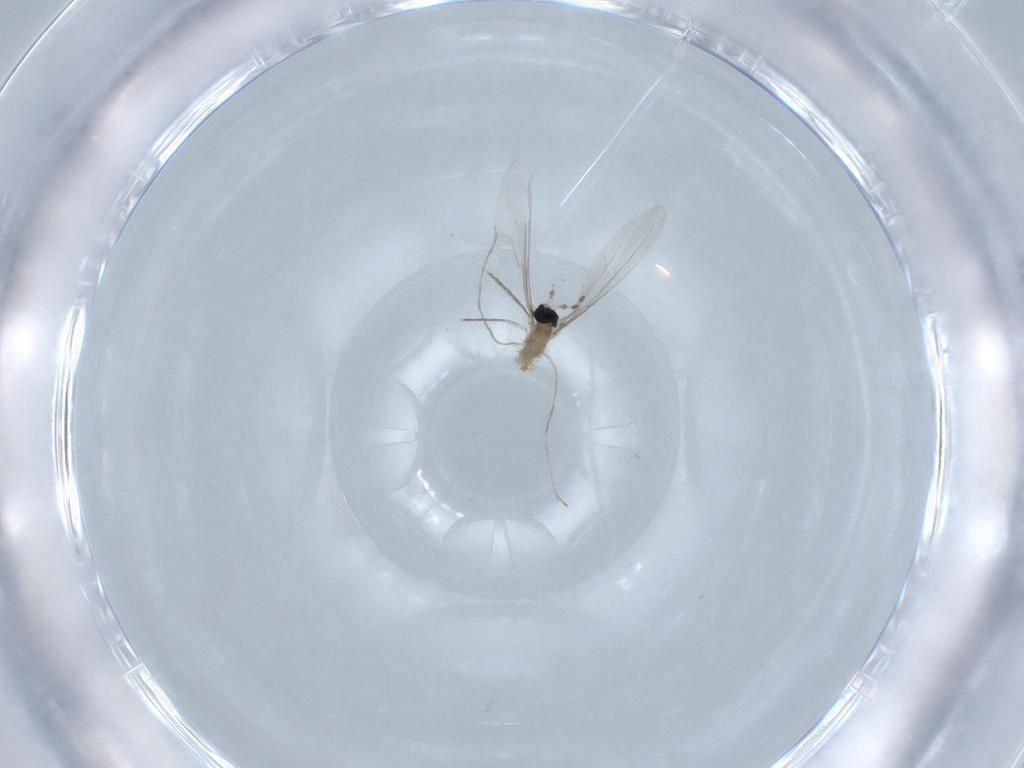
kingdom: Animalia
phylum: Arthropoda
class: Insecta
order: Diptera
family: Cecidomyiidae
